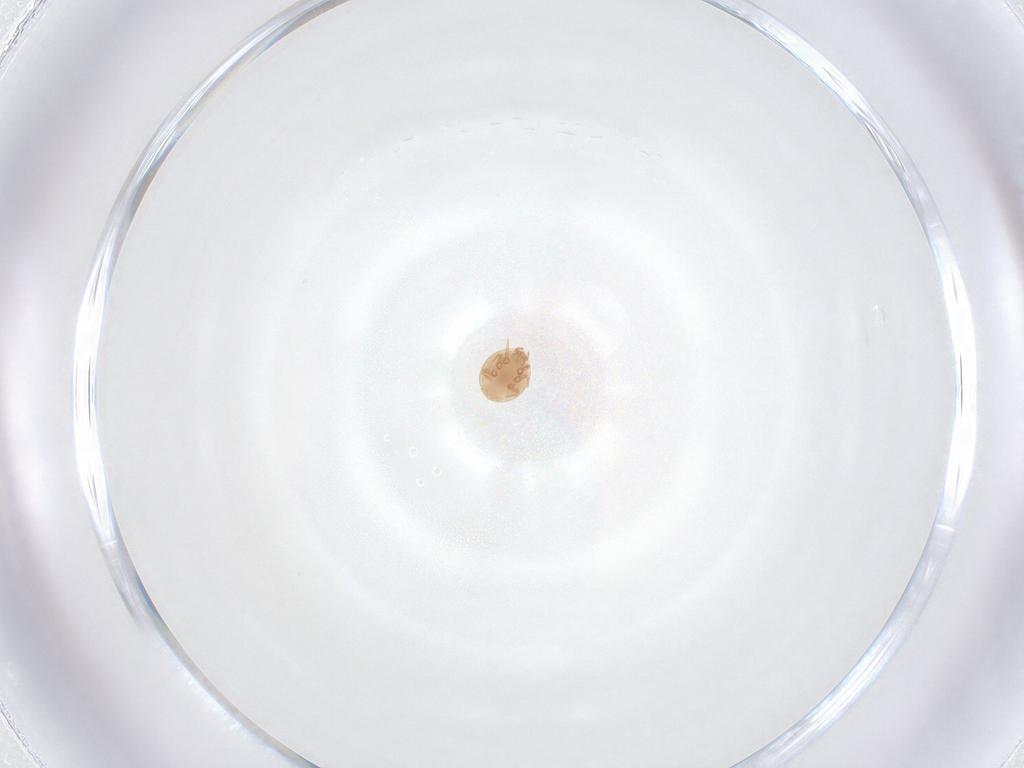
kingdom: Animalia
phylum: Arthropoda
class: Arachnida
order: Mesostigmata
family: Trematuridae
